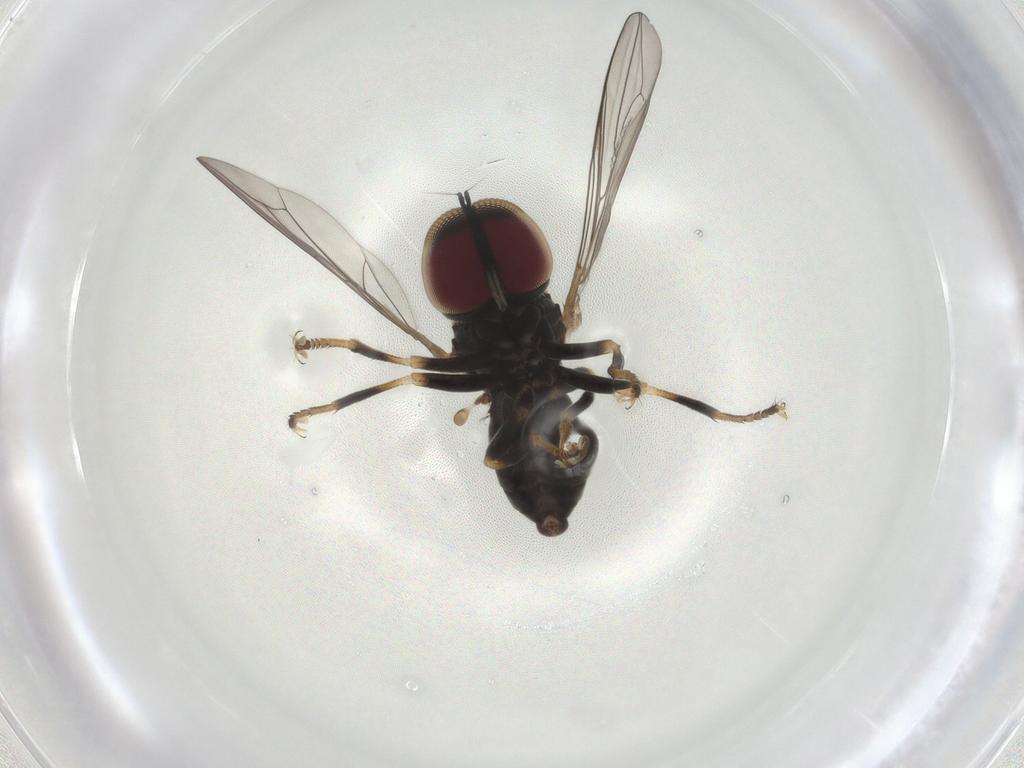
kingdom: Animalia
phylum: Arthropoda
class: Insecta
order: Diptera
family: Pipunculidae
